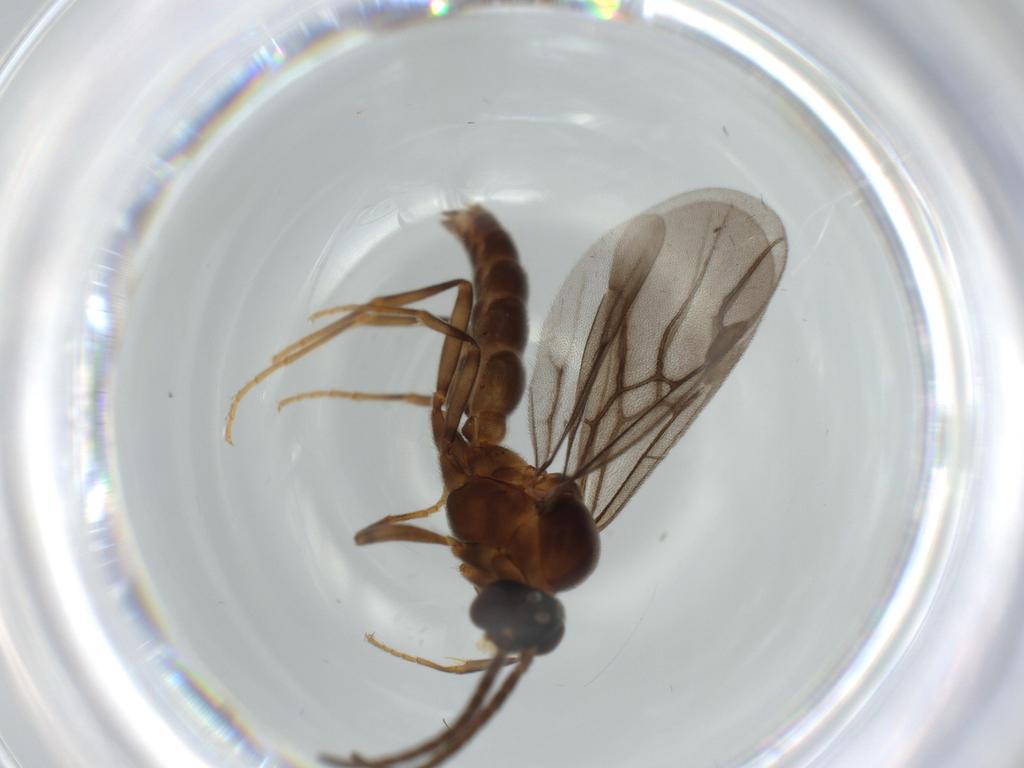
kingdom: Animalia
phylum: Arthropoda
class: Insecta
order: Hymenoptera
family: Formicidae
